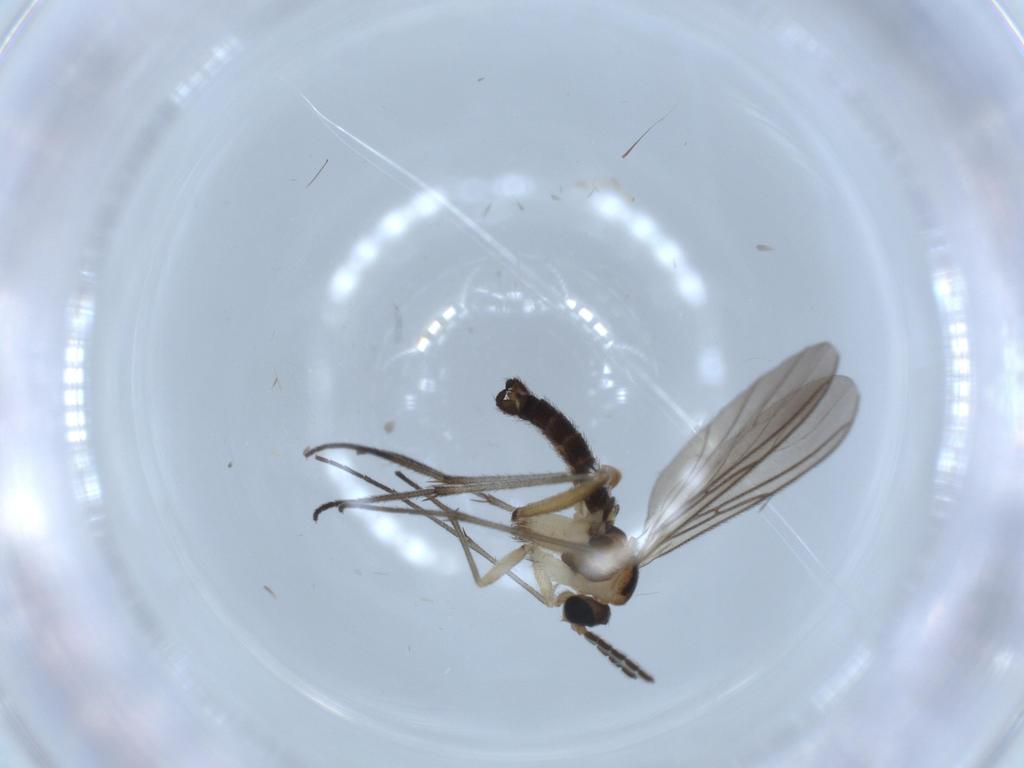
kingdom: Animalia
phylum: Arthropoda
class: Insecta
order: Diptera
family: Sciaridae
